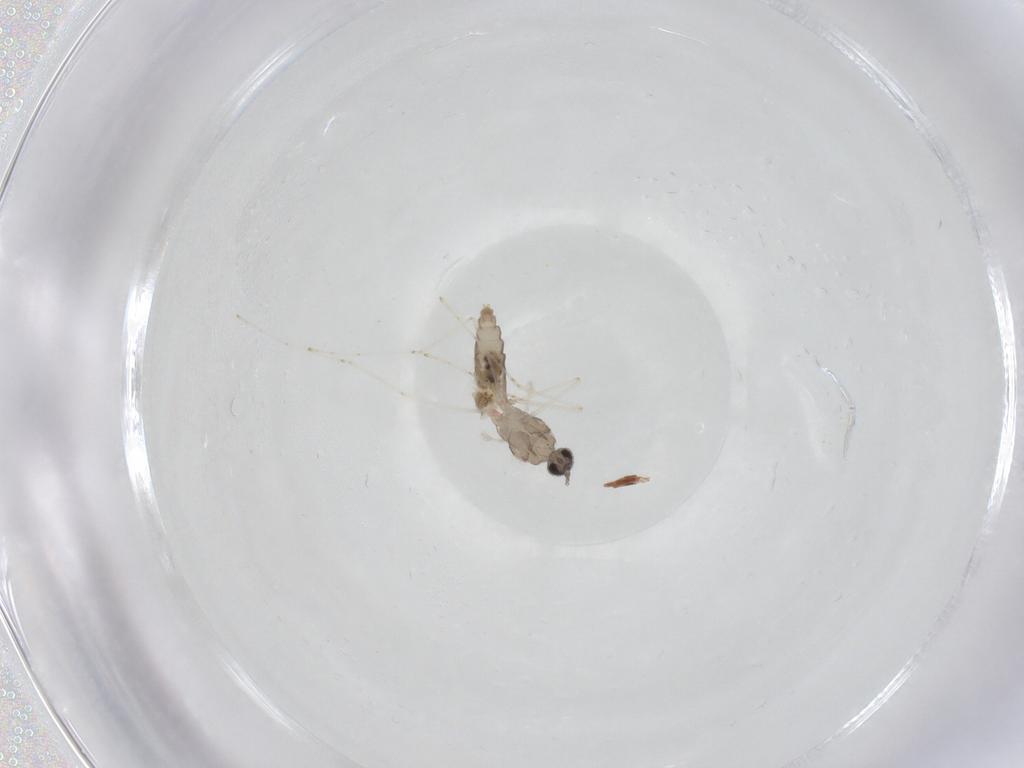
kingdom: Animalia
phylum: Arthropoda
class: Insecta
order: Diptera
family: Cecidomyiidae
